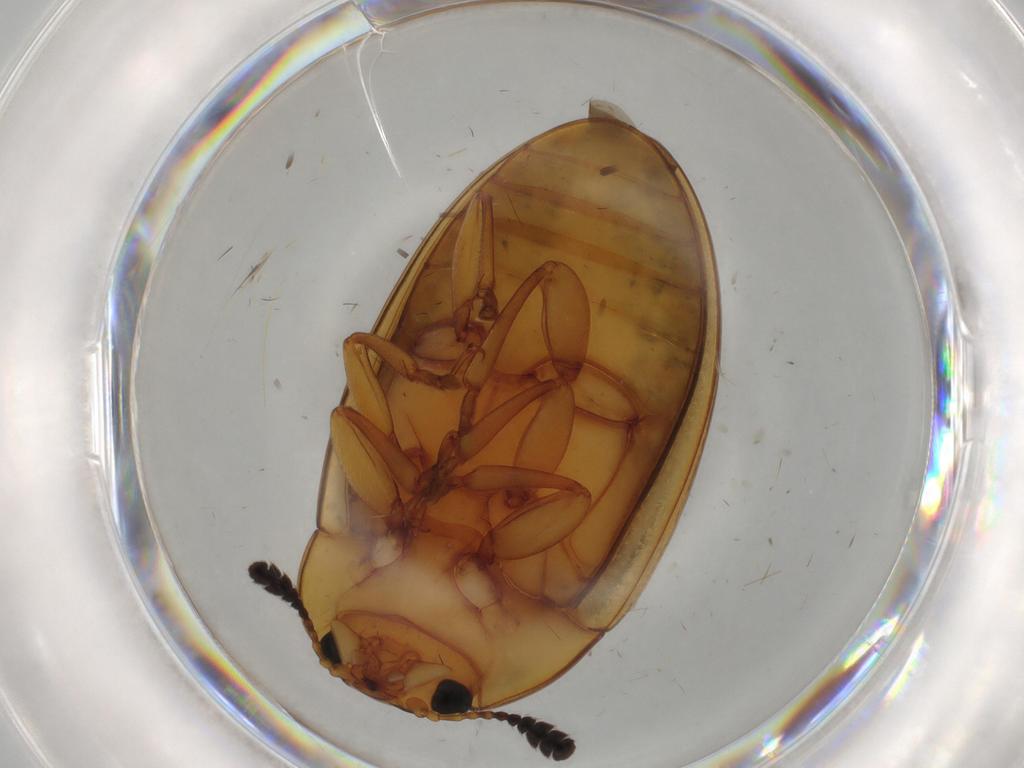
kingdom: Animalia
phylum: Arthropoda
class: Insecta
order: Coleoptera
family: Erotylidae
